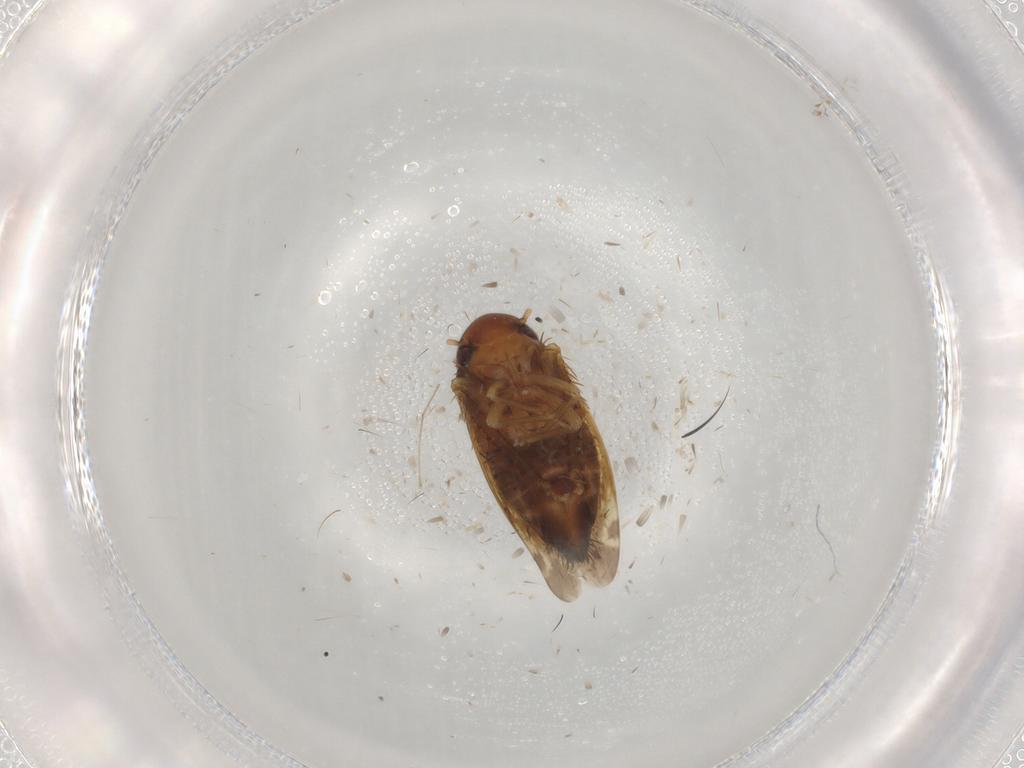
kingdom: Animalia
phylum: Arthropoda
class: Insecta
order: Hemiptera
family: Cicadellidae
